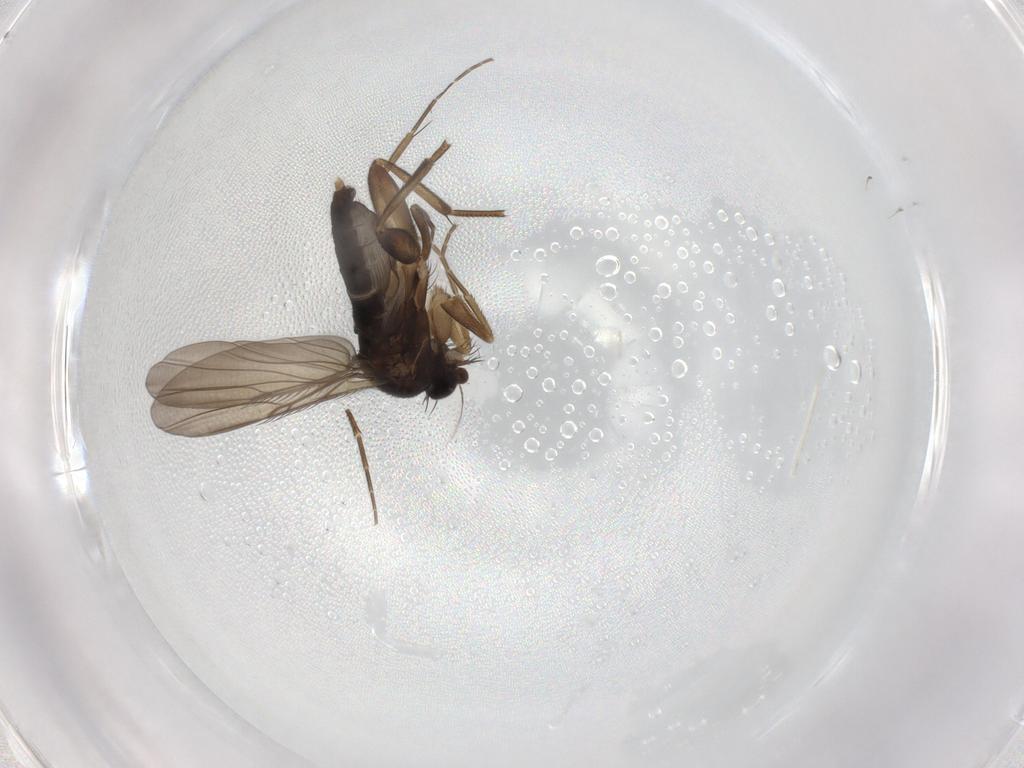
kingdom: Animalia
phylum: Arthropoda
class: Insecta
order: Diptera
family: Phoridae
